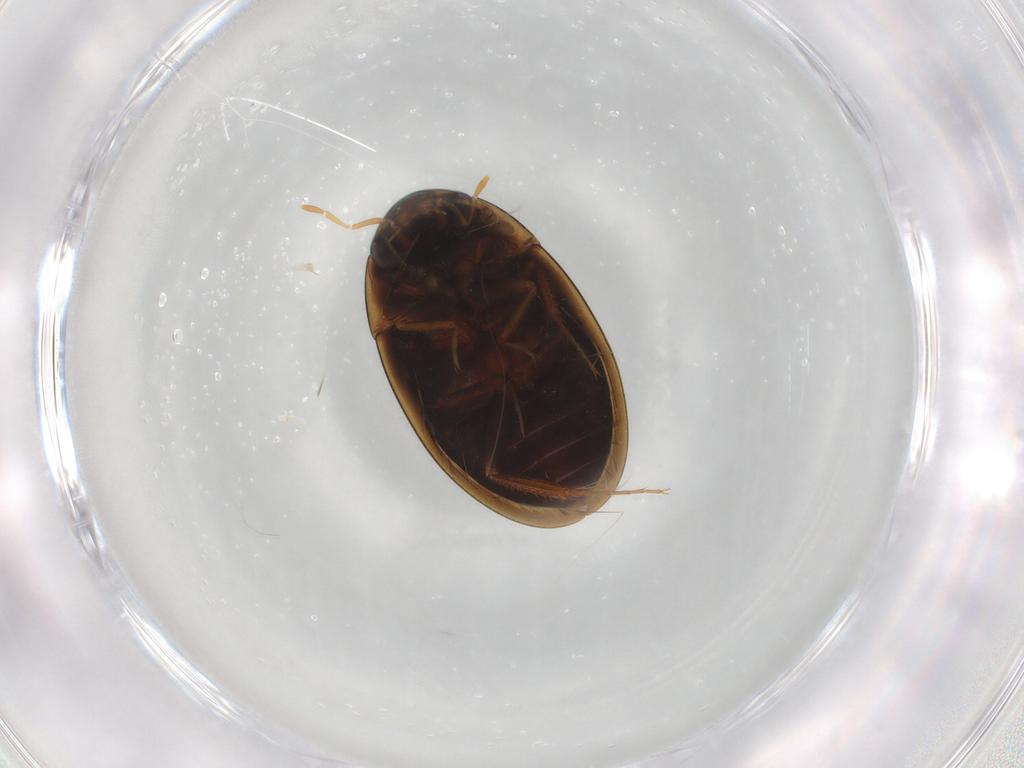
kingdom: Animalia
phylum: Arthropoda
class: Insecta
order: Coleoptera
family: Hydrophilidae
